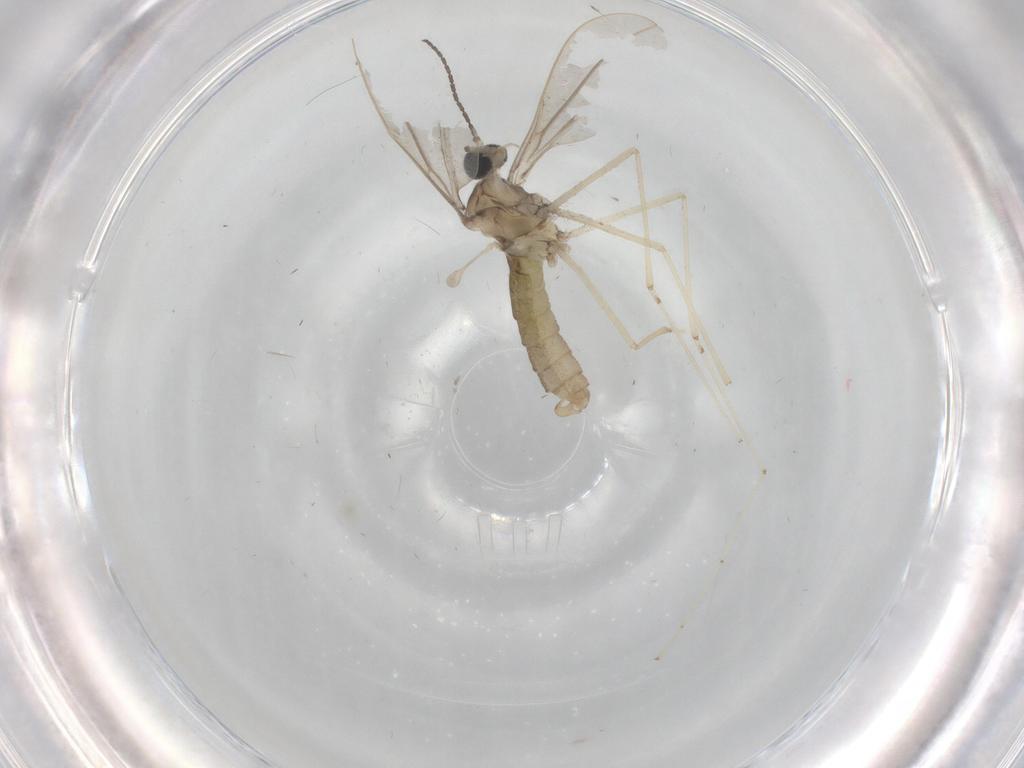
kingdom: Animalia
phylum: Arthropoda
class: Insecta
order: Diptera
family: Cecidomyiidae
